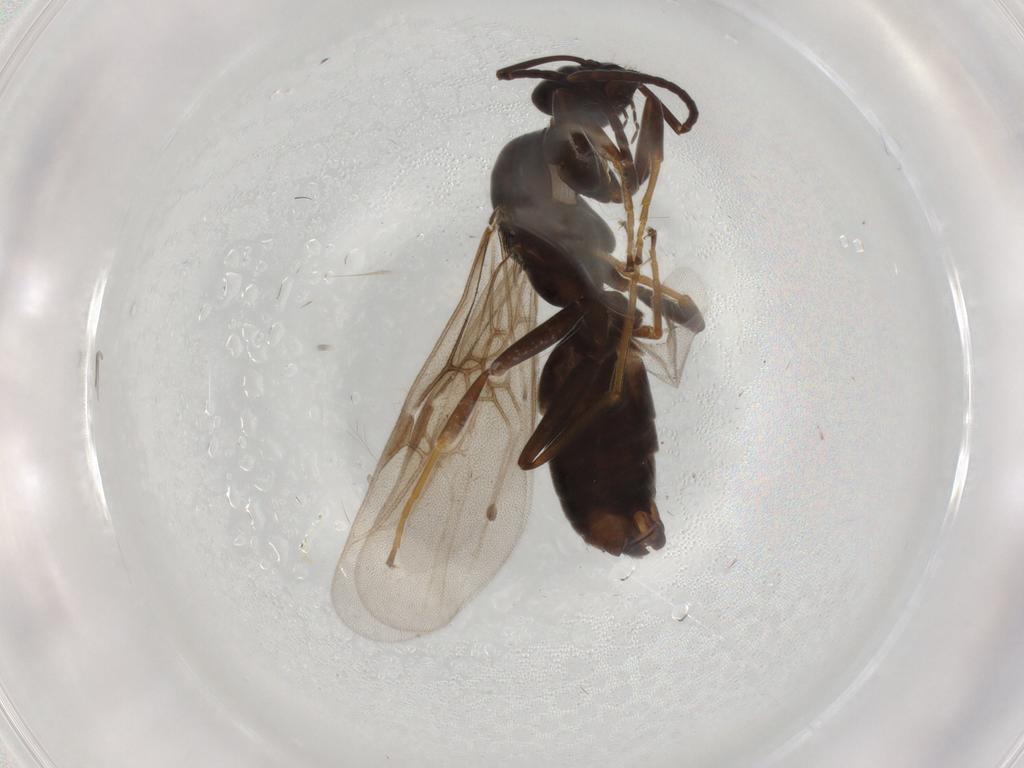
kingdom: Animalia
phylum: Arthropoda
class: Insecta
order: Hymenoptera
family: Formicidae
